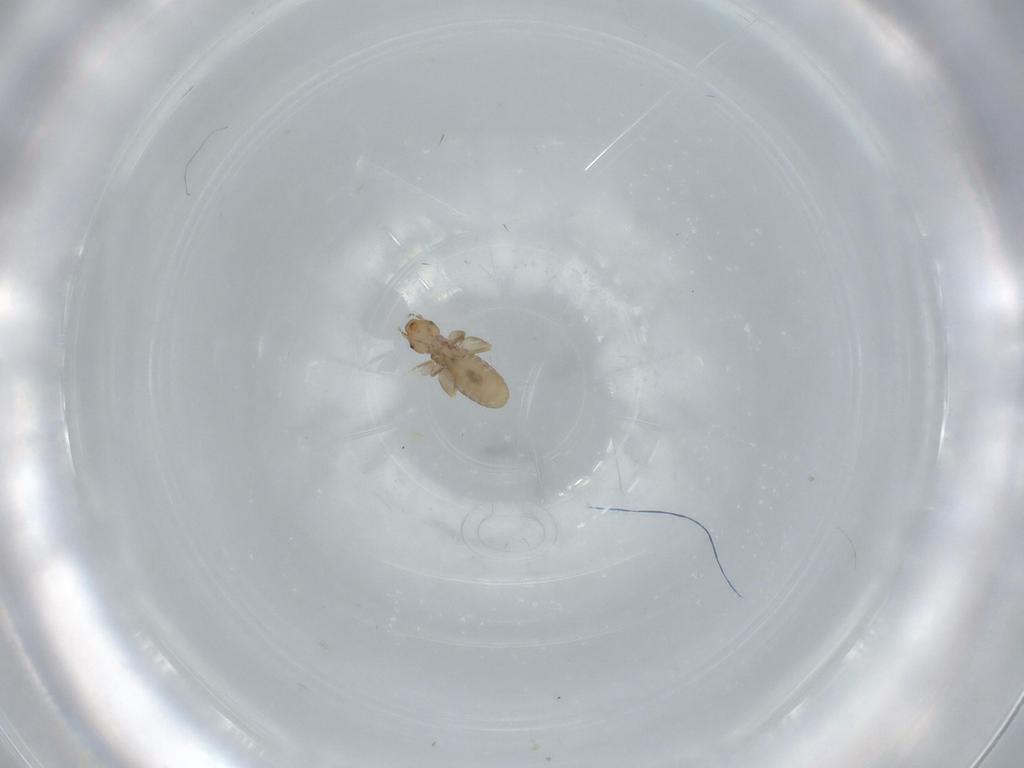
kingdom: Animalia
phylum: Arthropoda
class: Insecta
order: Psocodea
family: Liposcelididae
